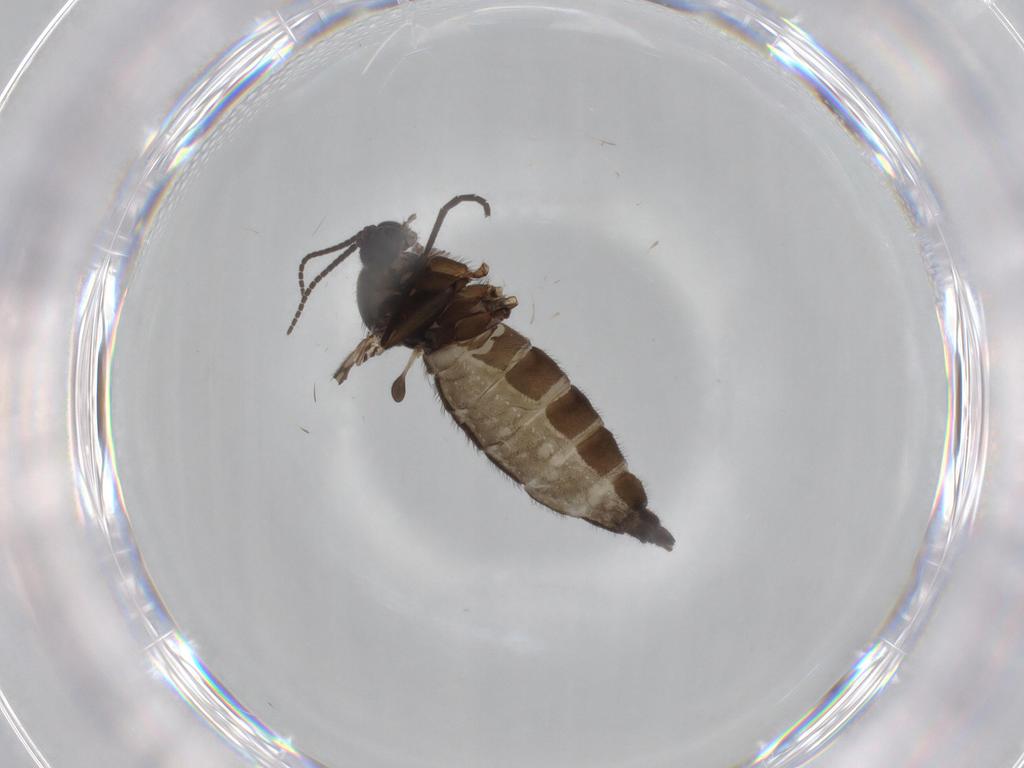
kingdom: Animalia
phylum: Arthropoda
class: Insecta
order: Diptera
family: Sciaridae
